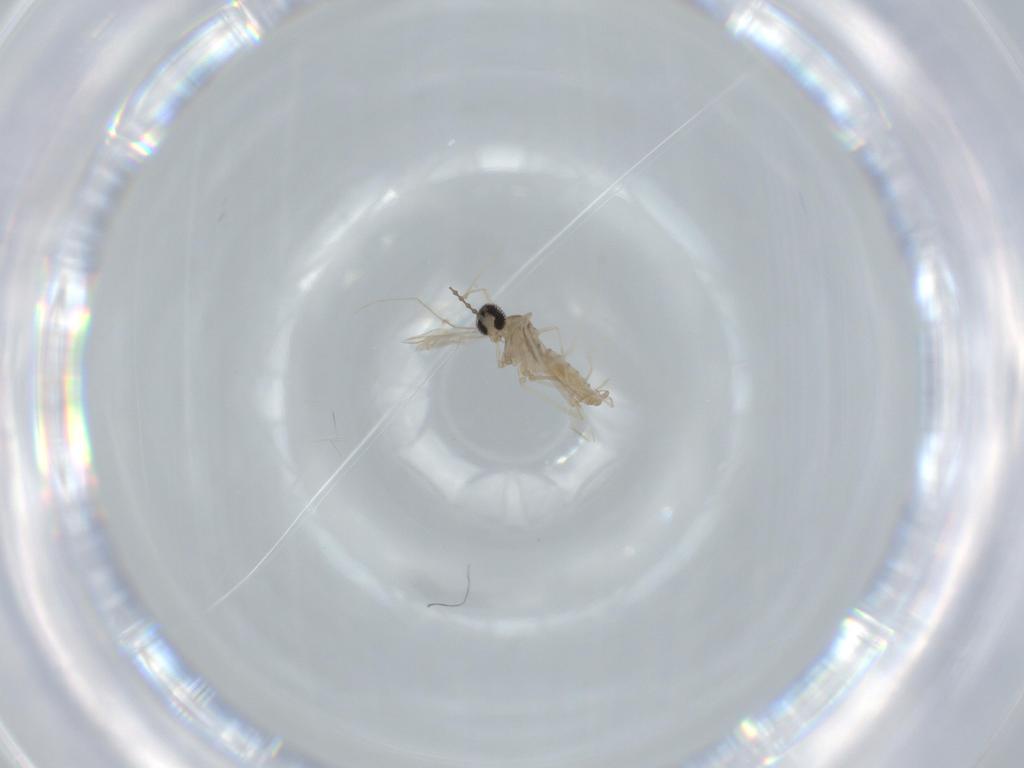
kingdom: Animalia
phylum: Arthropoda
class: Insecta
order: Diptera
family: Cecidomyiidae
